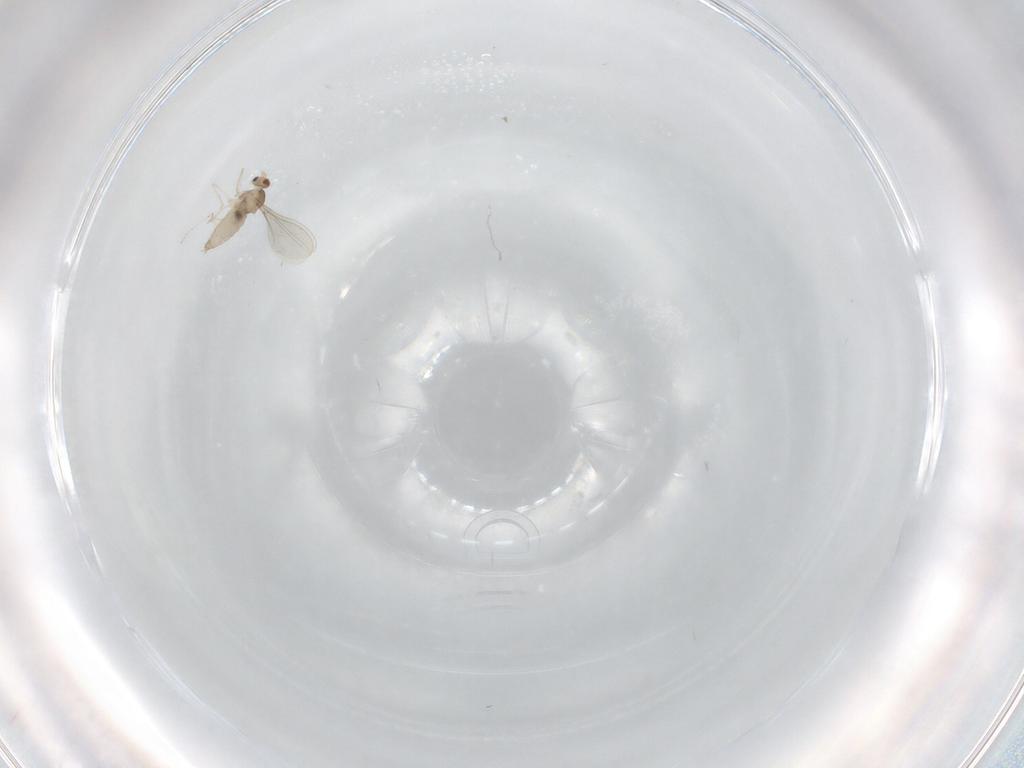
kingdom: Animalia
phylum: Arthropoda
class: Insecta
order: Diptera
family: Cecidomyiidae
